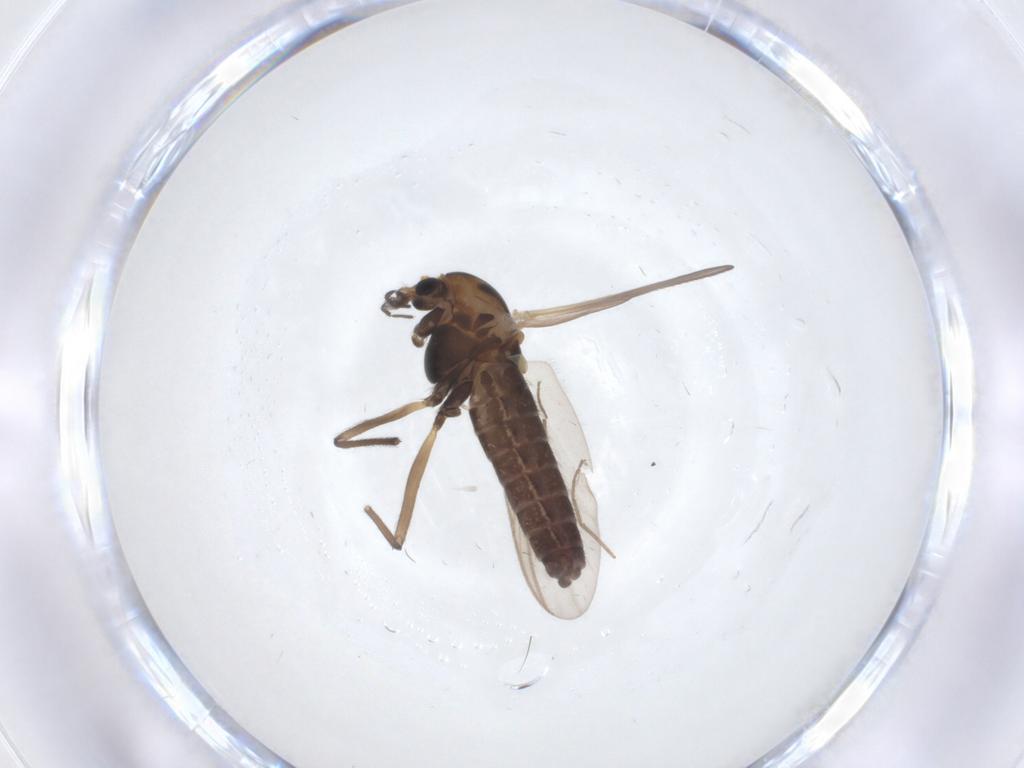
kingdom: Animalia
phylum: Arthropoda
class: Insecta
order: Diptera
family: Chironomidae
